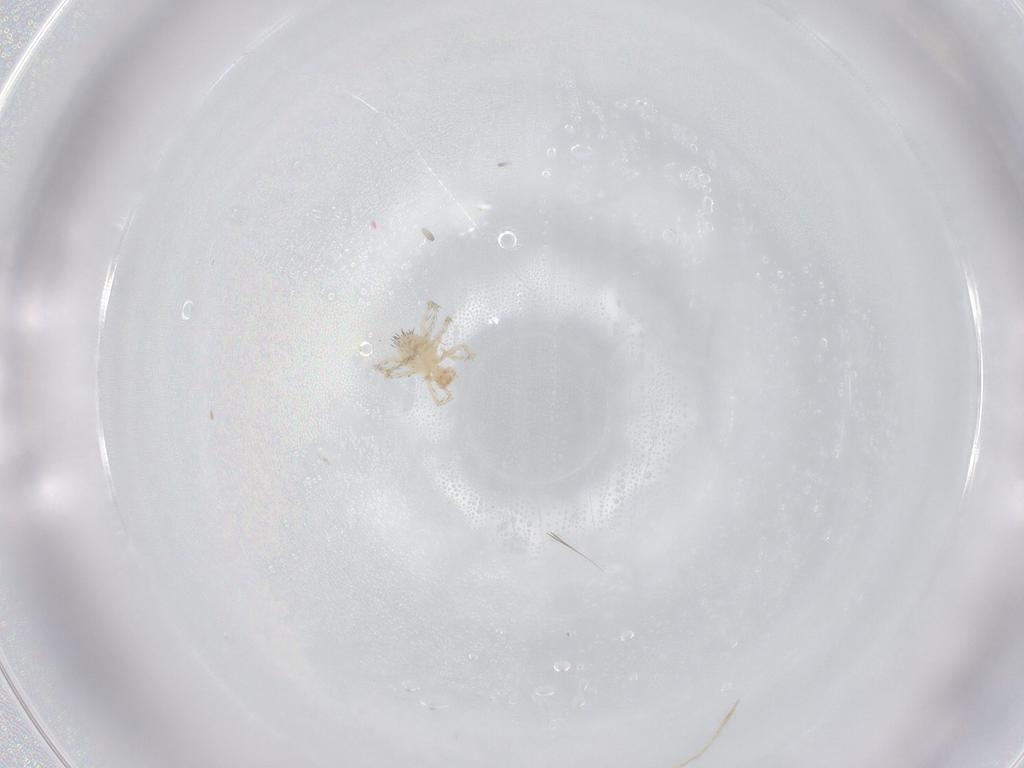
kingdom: Animalia
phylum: Arthropoda
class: Arachnida
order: Trombidiformes
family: Erythraeidae
